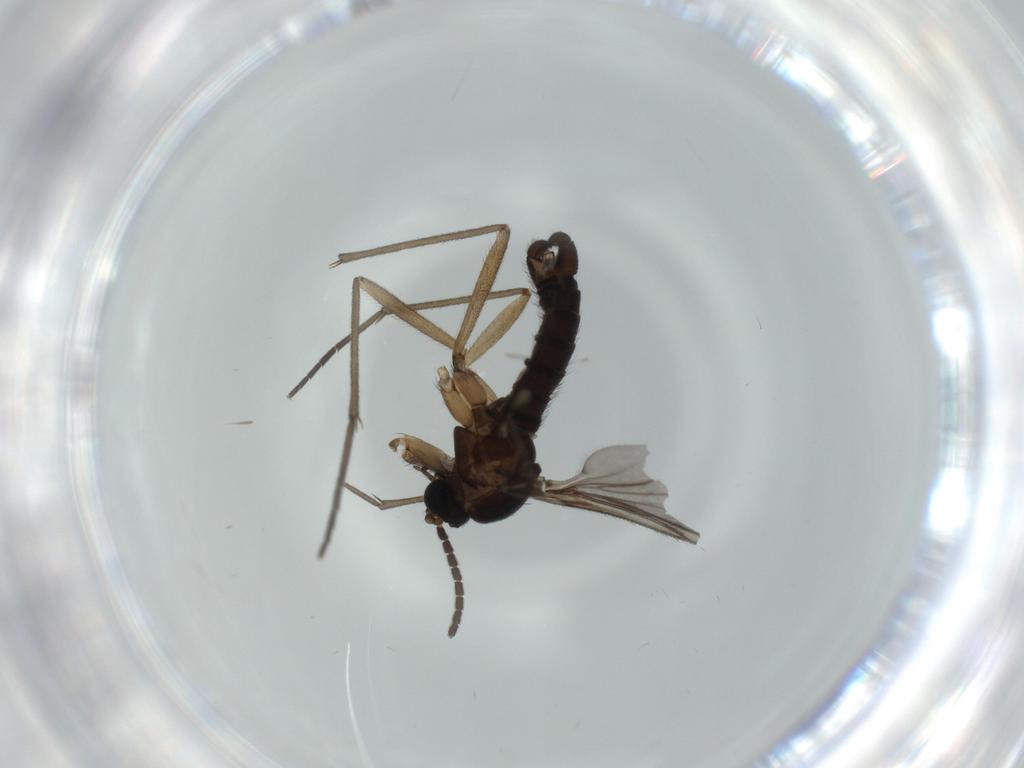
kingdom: Animalia
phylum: Arthropoda
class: Insecta
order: Diptera
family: Sciaridae
